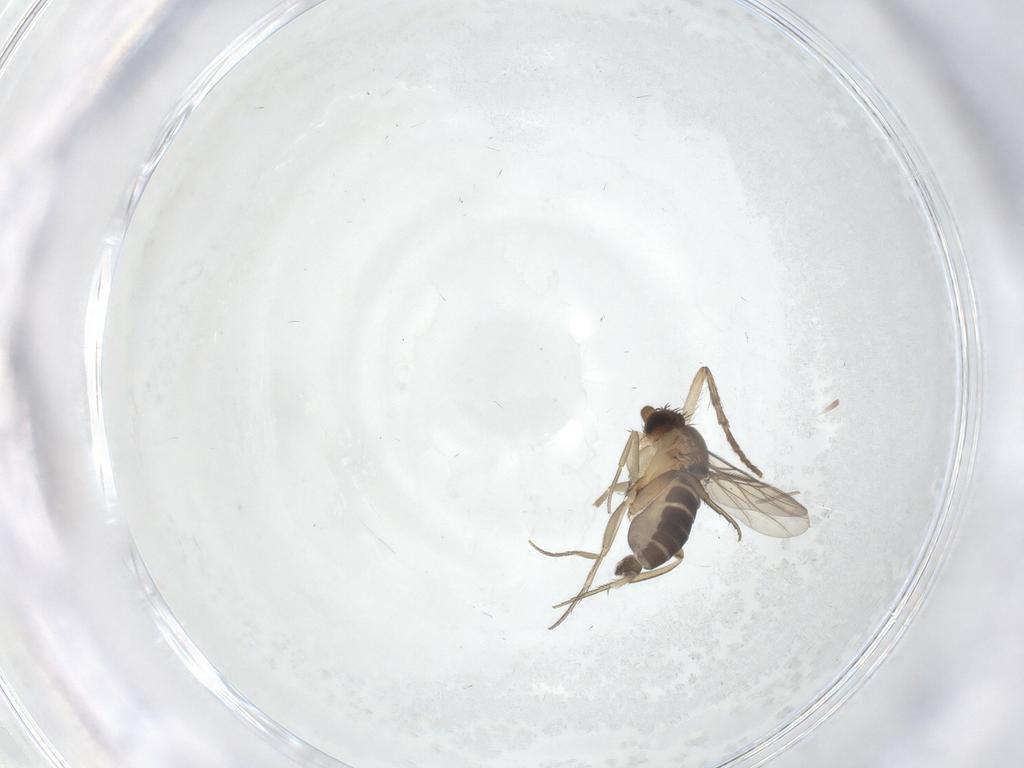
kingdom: Animalia
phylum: Arthropoda
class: Insecta
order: Diptera
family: Phoridae
